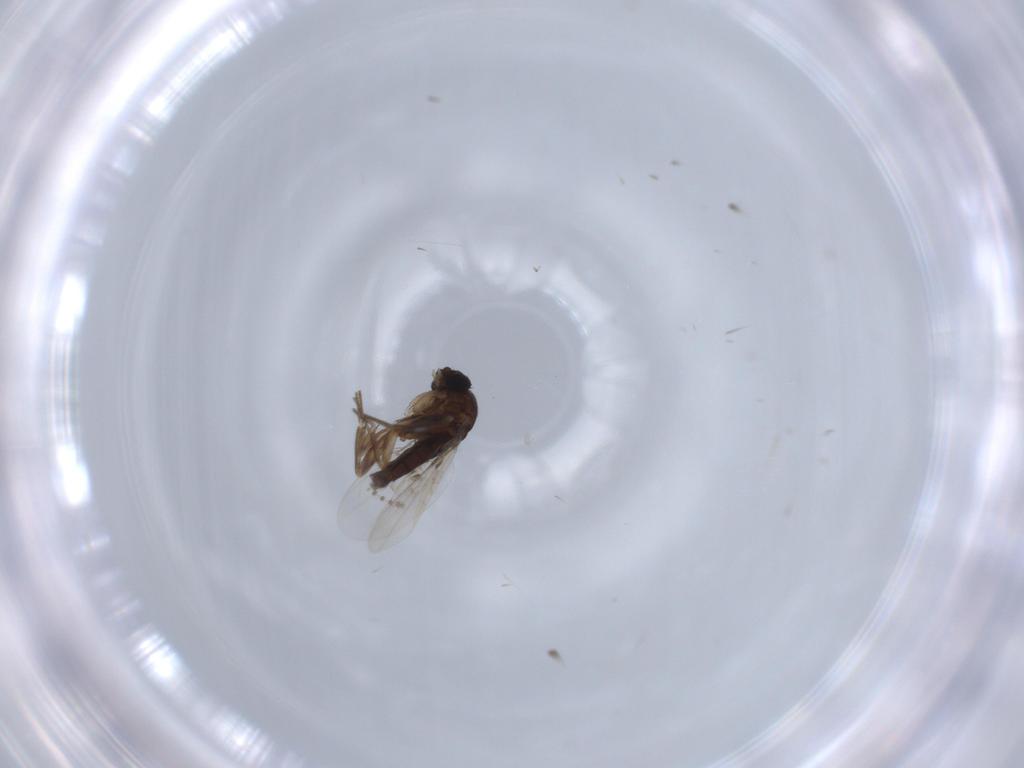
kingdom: Animalia
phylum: Arthropoda
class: Insecta
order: Diptera
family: Phoridae
